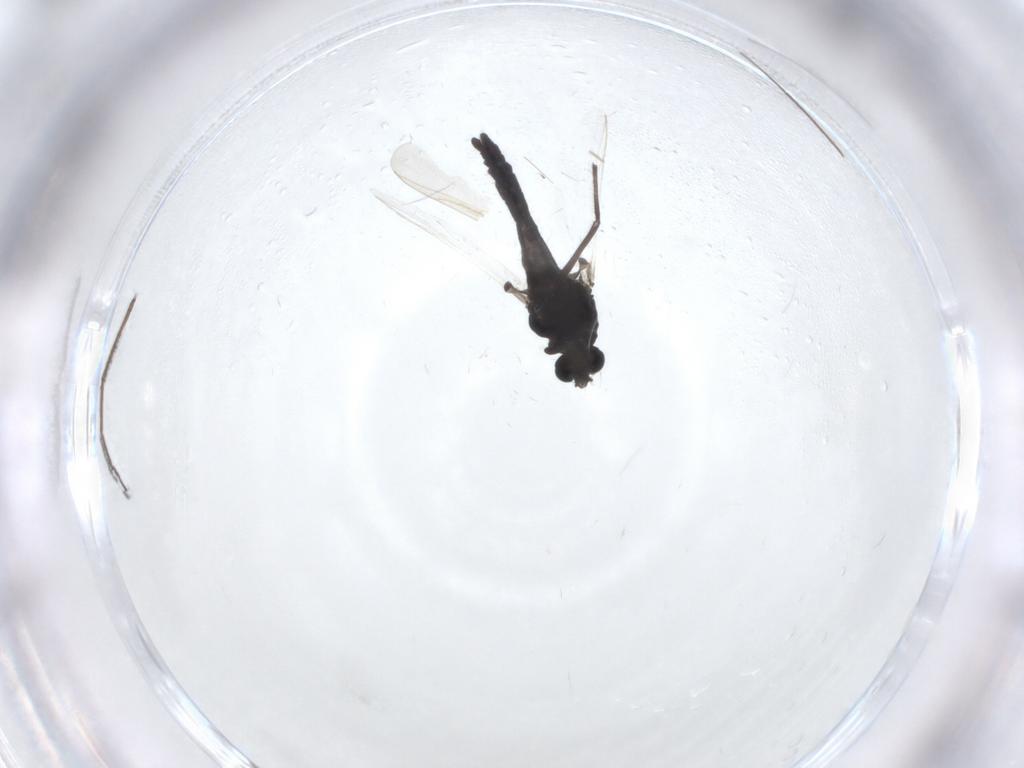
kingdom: Animalia
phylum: Arthropoda
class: Insecta
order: Diptera
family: Chironomidae
